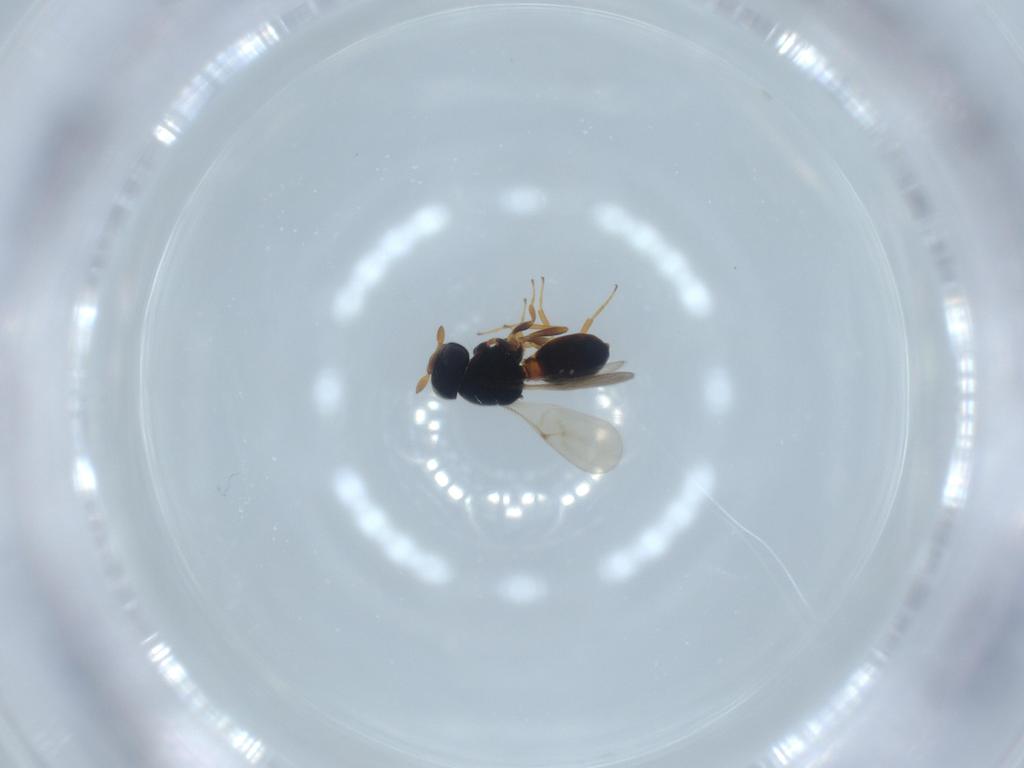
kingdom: Animalia
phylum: Arthropoda
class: Insecta
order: Hymenoptera
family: Scelionidae
